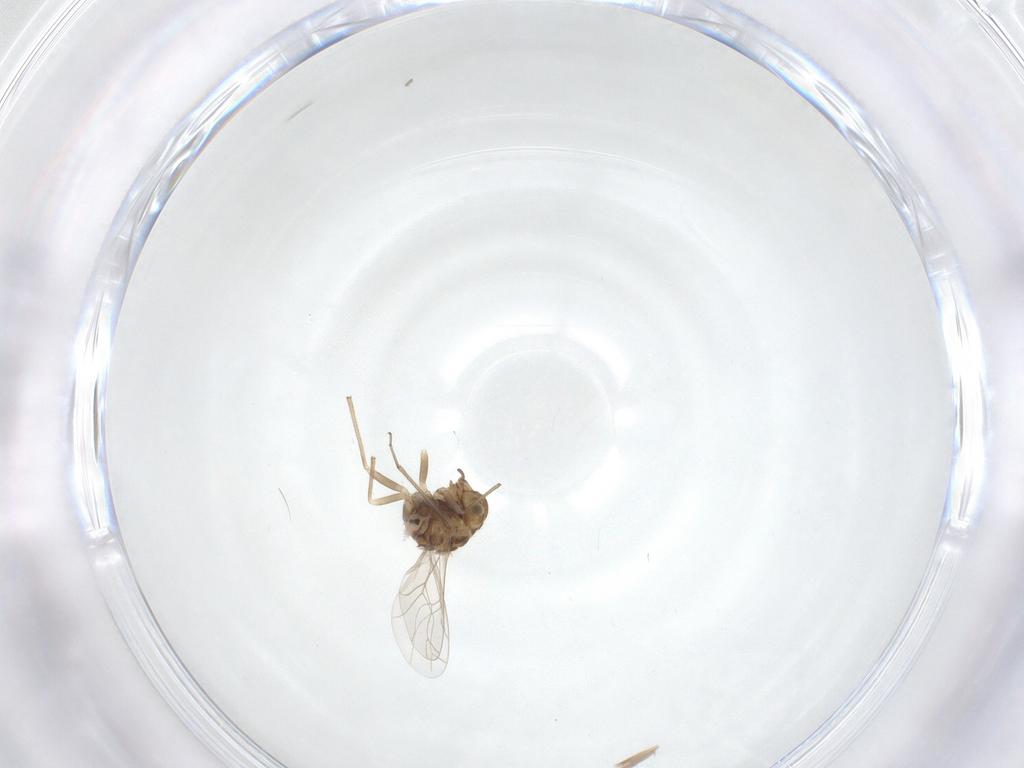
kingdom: Animalia
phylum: Arthropoda
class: Insecta
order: Psocodea
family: Lachesillidae
